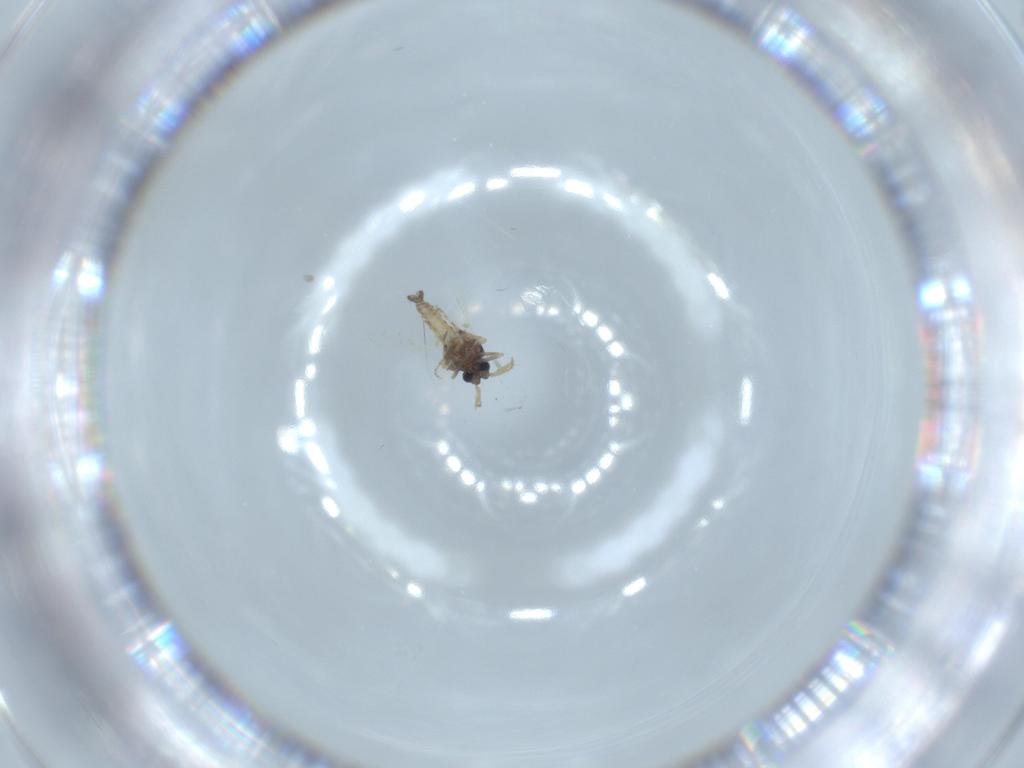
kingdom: Animalia
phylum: Arthropoda
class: Insecta
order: Diptera
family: Ceratopogonidae
